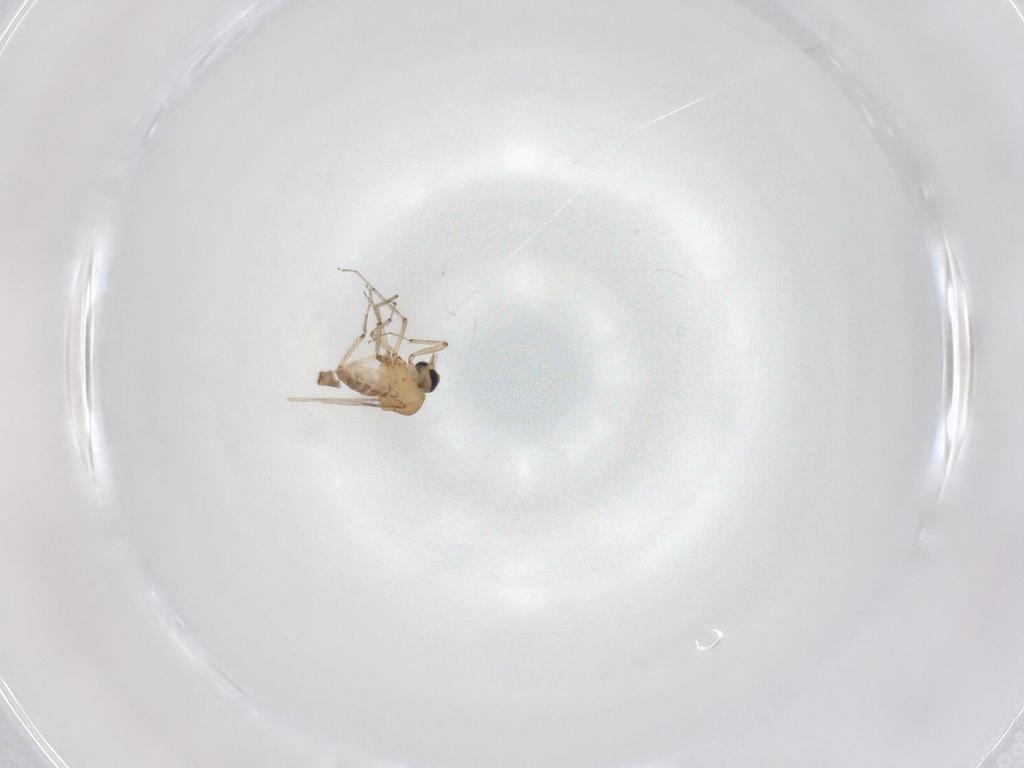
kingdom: Animalia
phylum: Arthropoda
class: Insecta
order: Diptera
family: Ceratopogonidae
